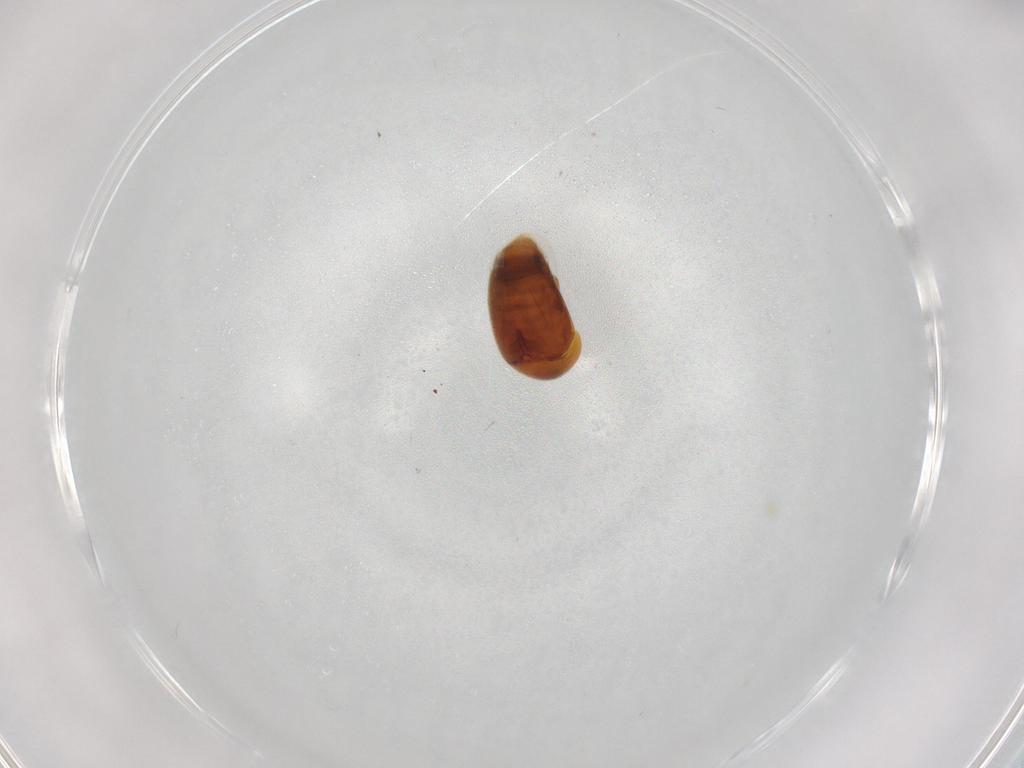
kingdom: Animalia
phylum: Arthropoda
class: Insecta
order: Coleoptera
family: Corylophidae
